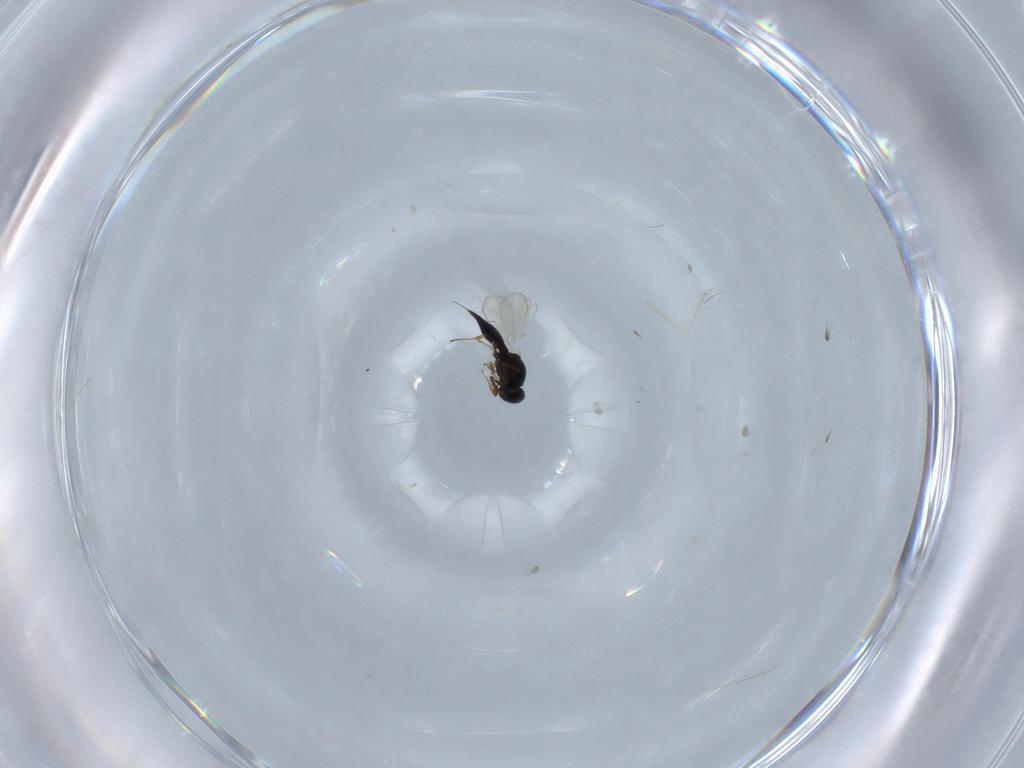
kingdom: Animalia
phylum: Arthropoda
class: Insecta
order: Hymenoptera
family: Platygastridae
